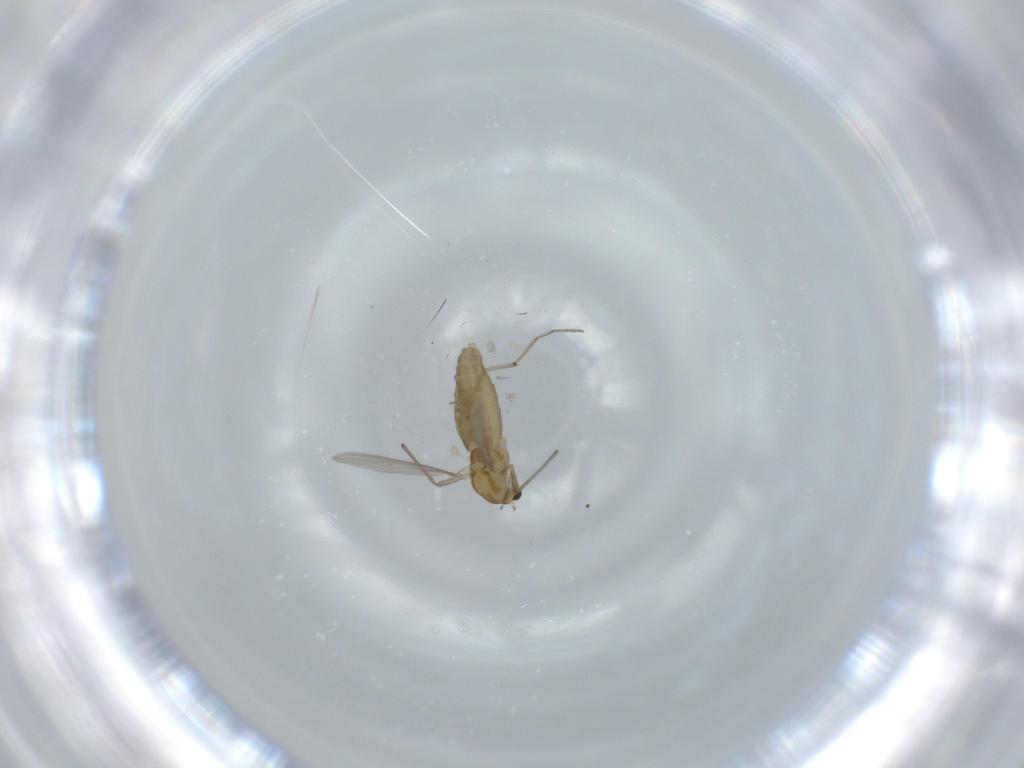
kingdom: Animalia
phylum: Arthropoda
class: Insecta
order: Diptera
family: Chironomidae
